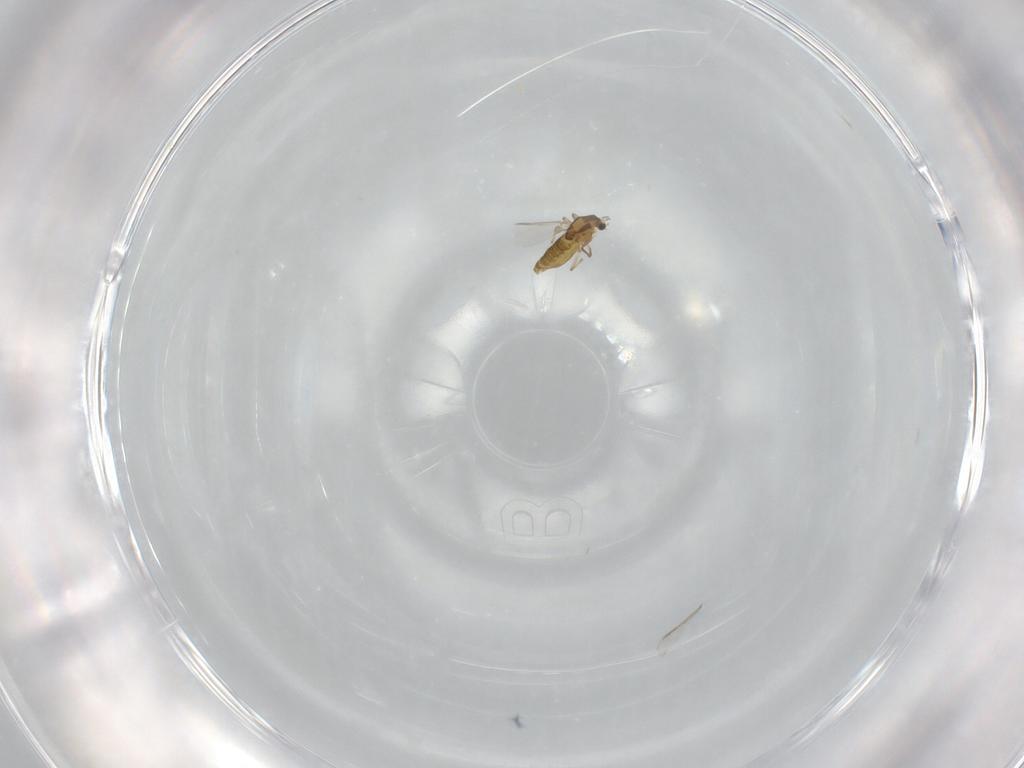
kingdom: Animalia
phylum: Arthropoda
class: Insecta
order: Diptera
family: Chironomidae
